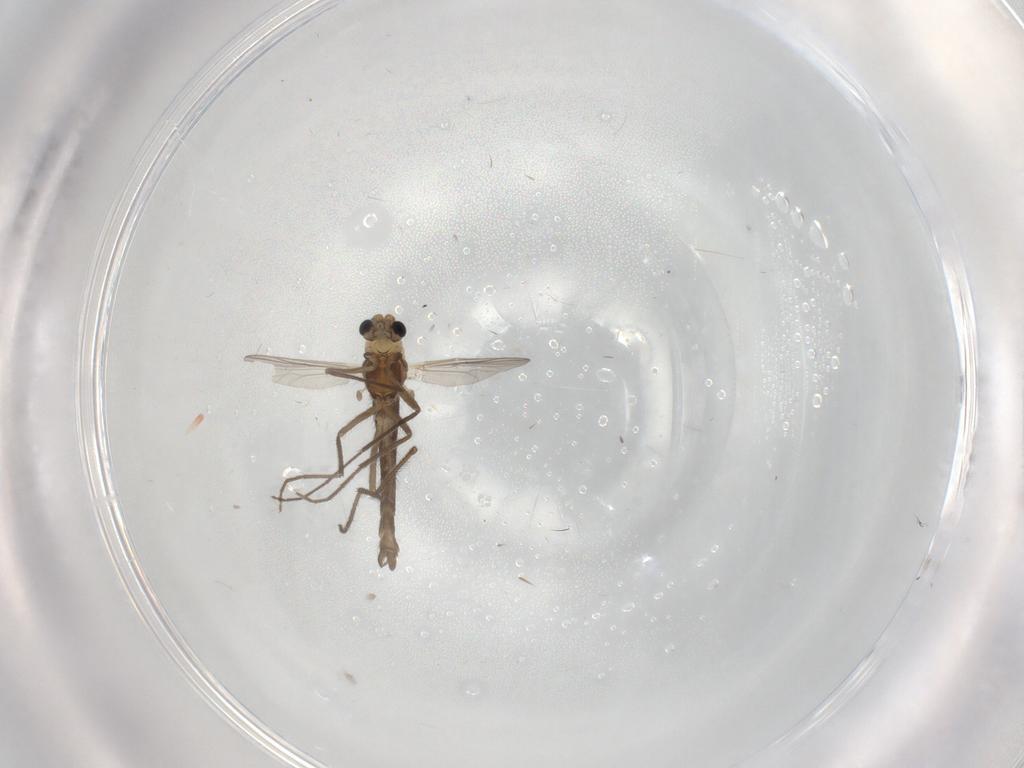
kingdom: Animalia
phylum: Arthropoda
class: Insecta
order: Diptera
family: Chironomidae
